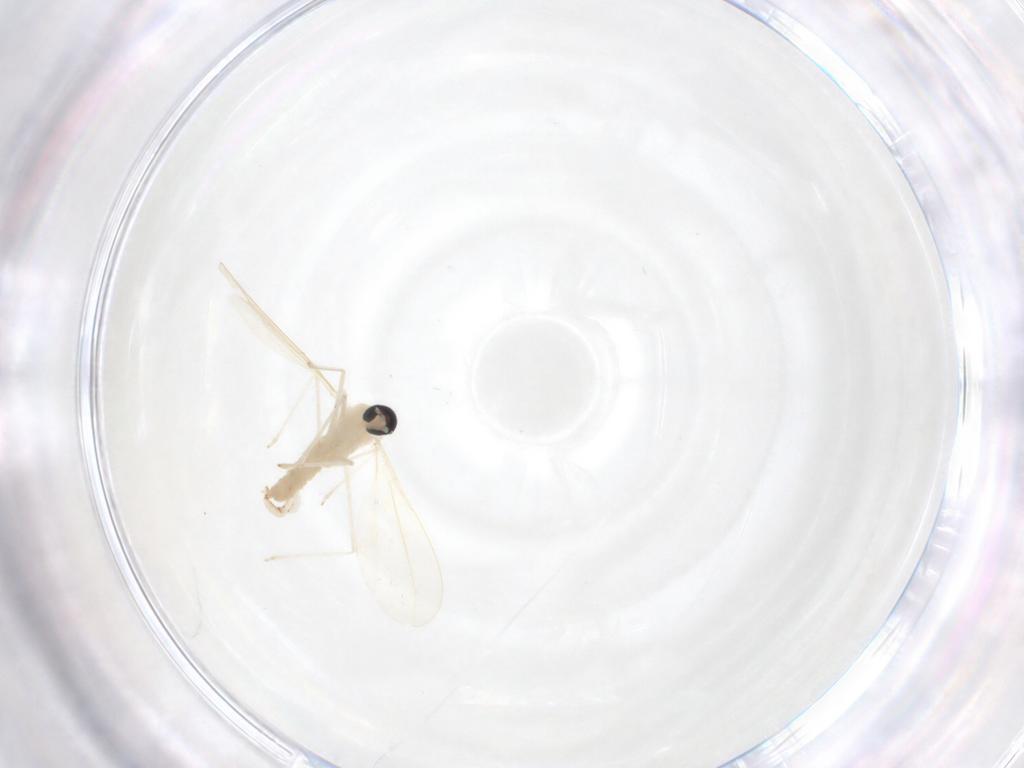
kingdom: Animalia
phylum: Arthropoda
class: Insecta
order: Diptera
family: Cecidomyiidae
